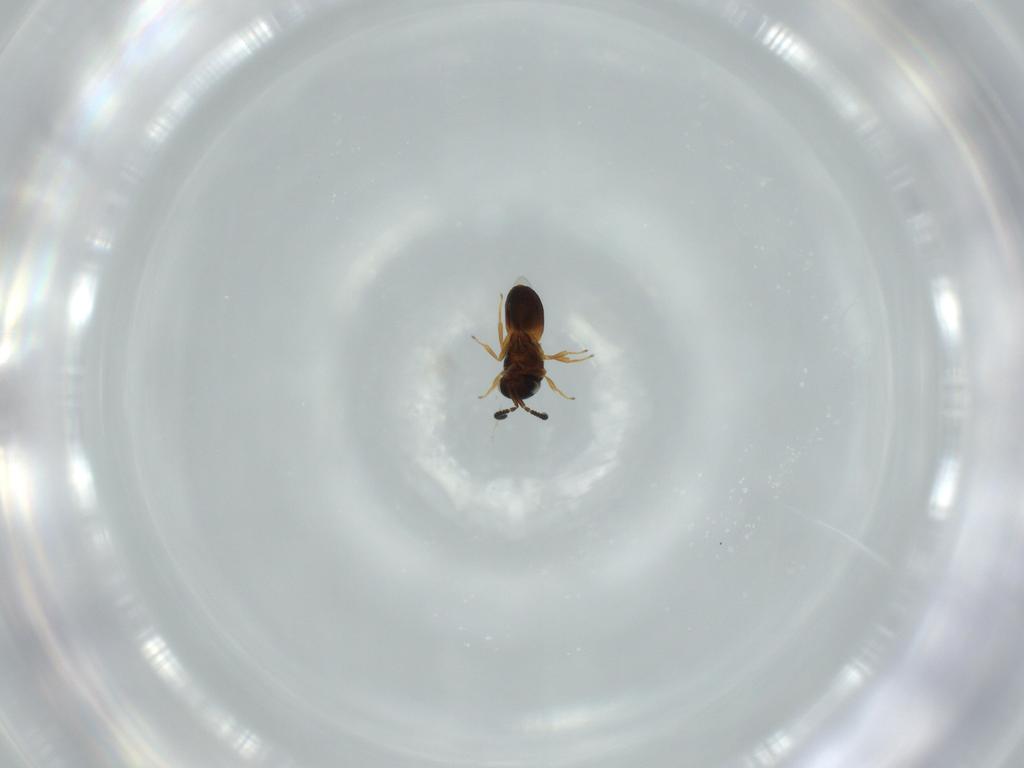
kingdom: Animalia
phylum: Arthropoda
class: Insecta
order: Hymenoptera
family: Scelionidae
